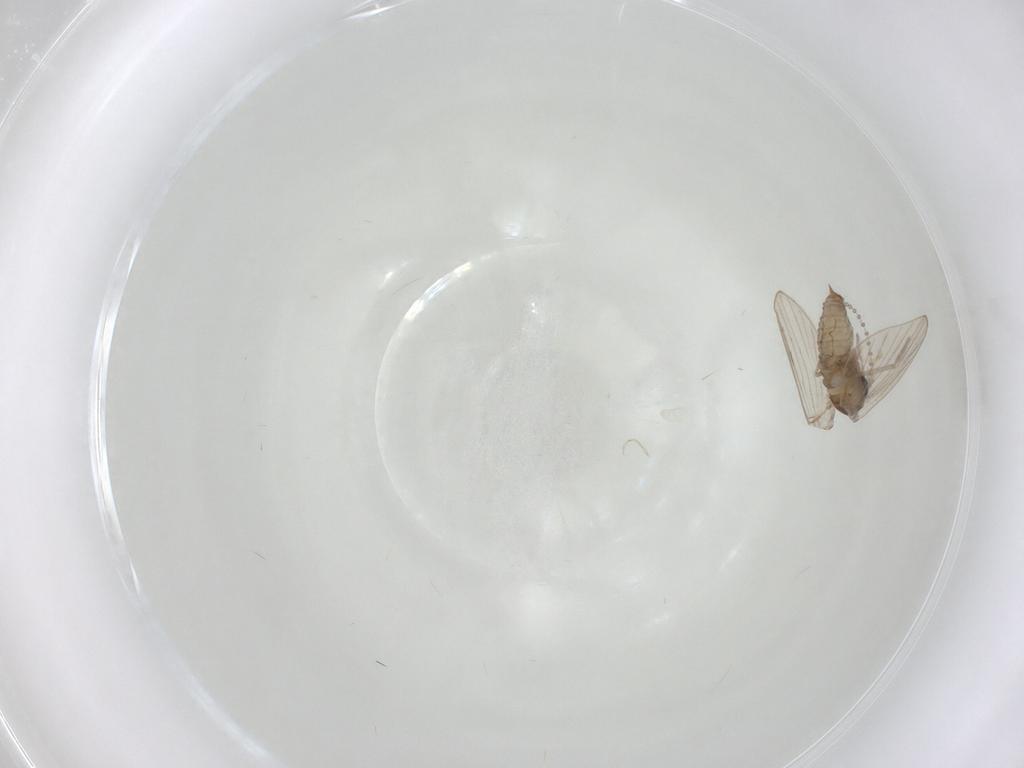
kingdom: Animalia
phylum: Arthropoda
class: Insecta
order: Diptera
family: Psychodidae
